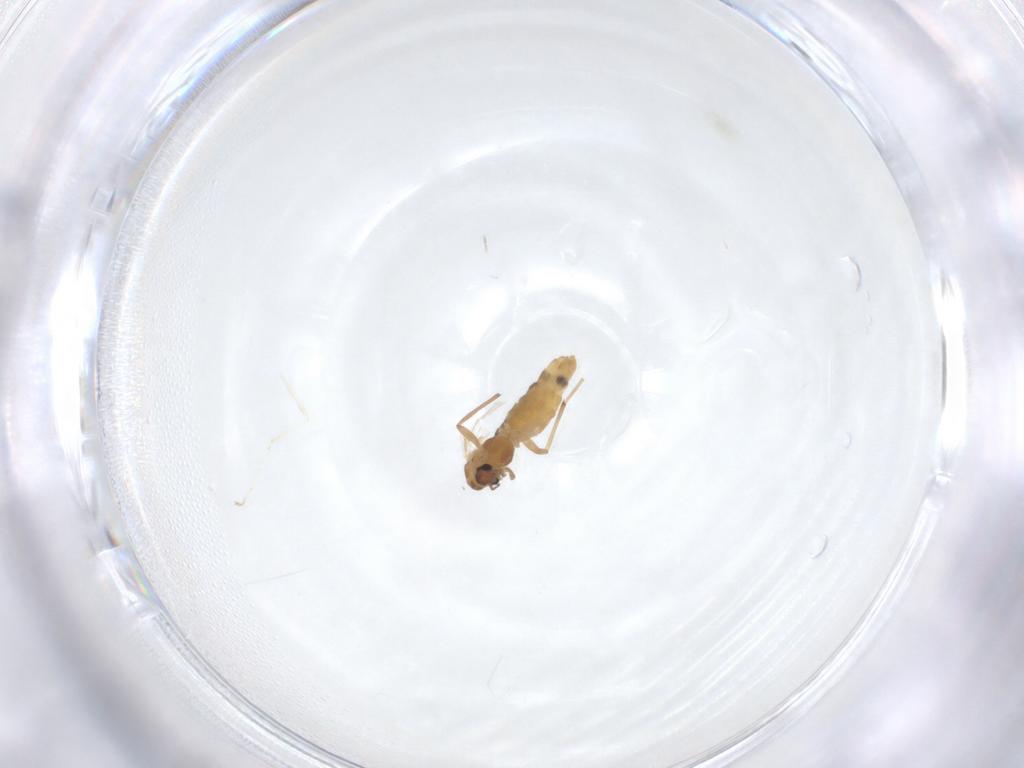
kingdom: Animalia
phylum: Arthropoda
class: Insecta
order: Diptera
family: Chironomidae
